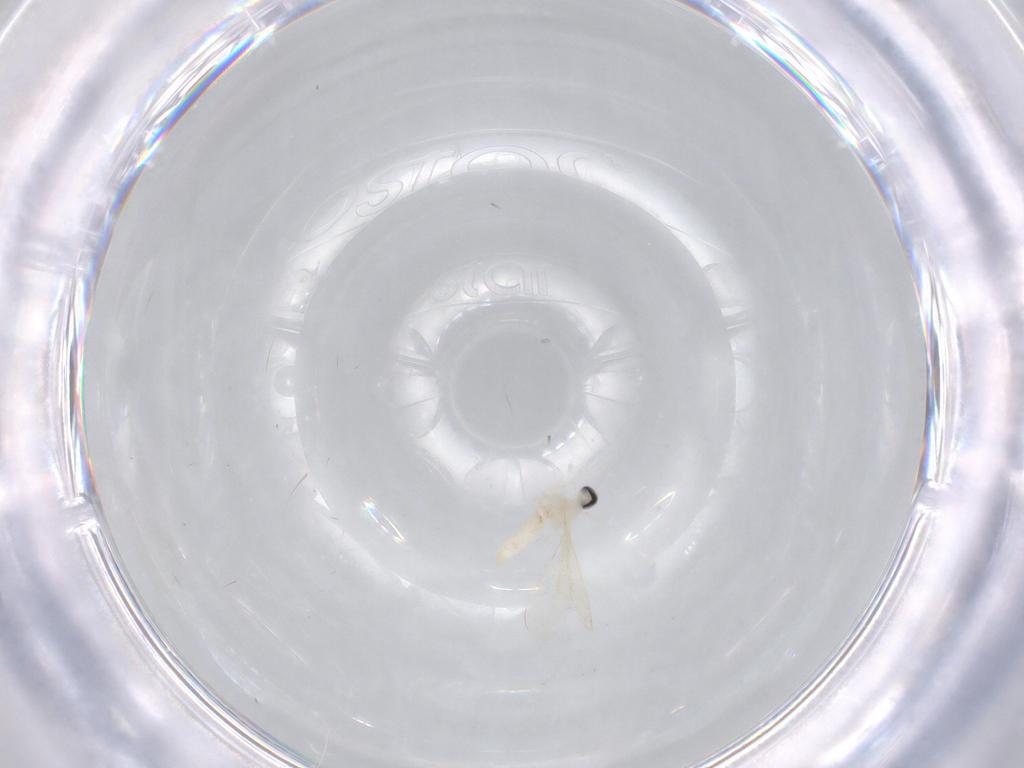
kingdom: Animalia
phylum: Arthropoda
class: Insecta
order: Diptera
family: Cecidomyiidae
